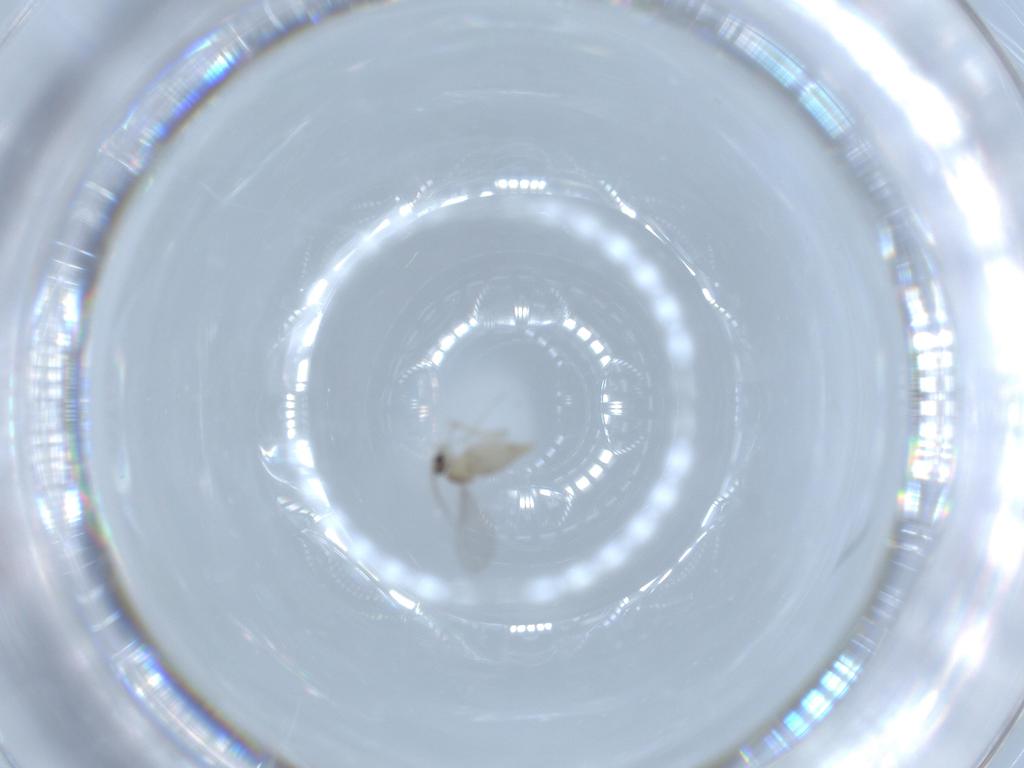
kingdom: Animalia
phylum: Arthropoda
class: Insecta
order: Diptera
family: Cecidomyiidae
